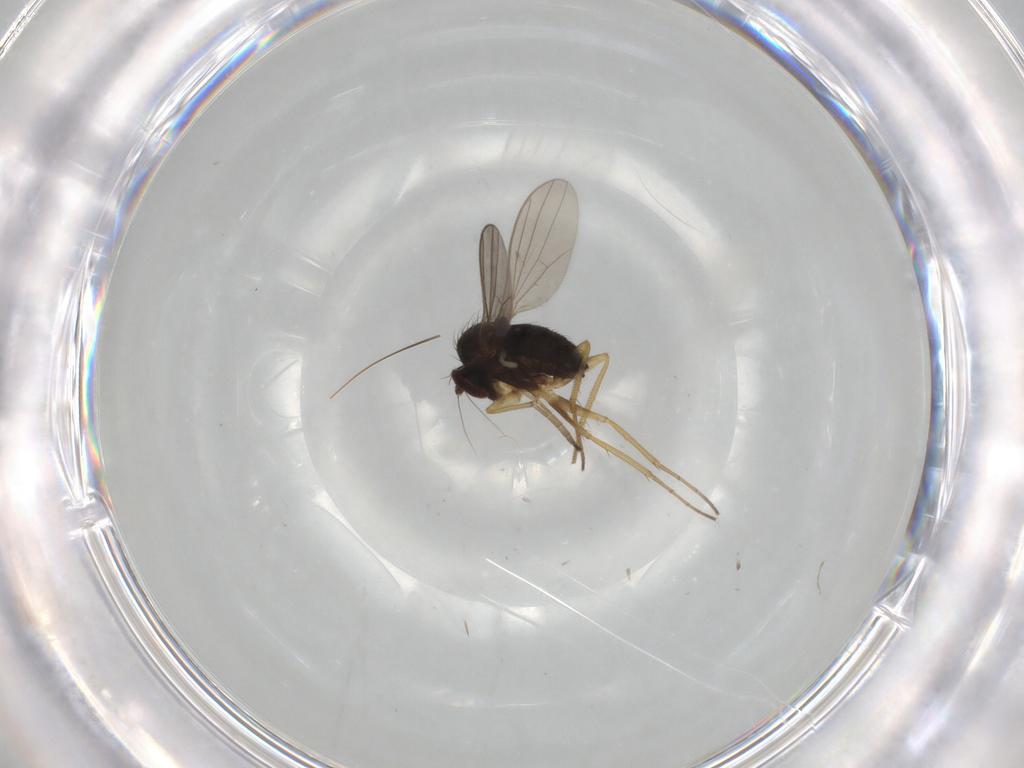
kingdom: Animalia
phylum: Arthropoda
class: Insecta
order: Diptera
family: Dolichopodidae
